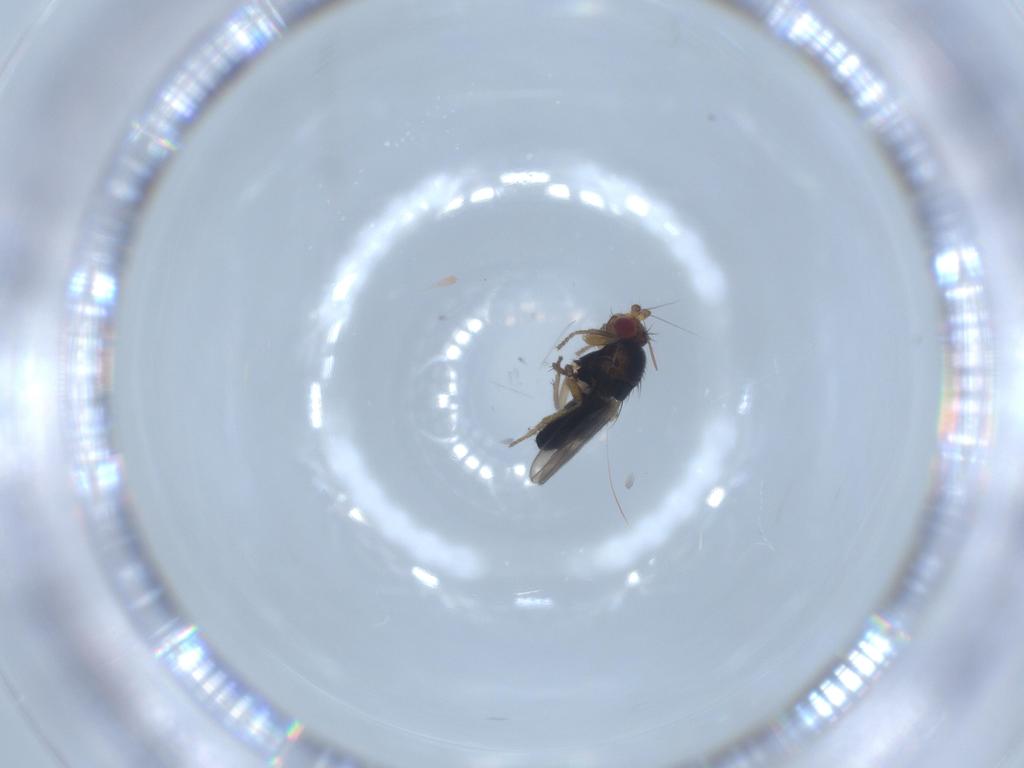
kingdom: Animalia
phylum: Arthropoda
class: Insecta
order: Diptera
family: Sphaeroceridae
